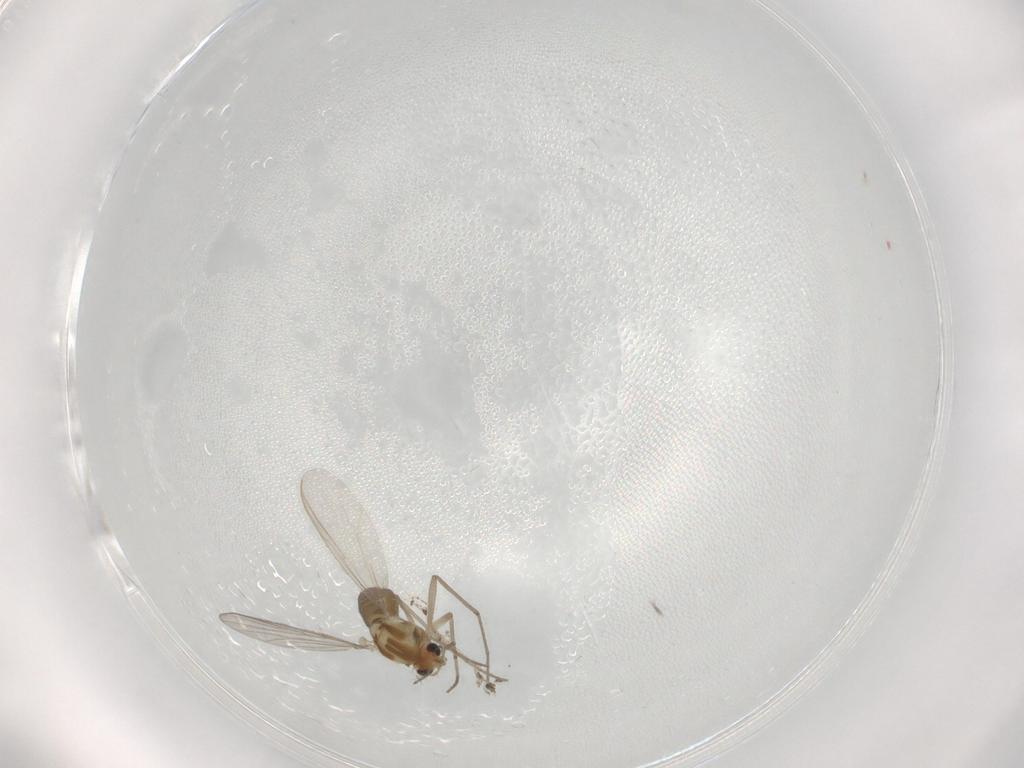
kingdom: Animalia
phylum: Arthropoda
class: Insecta
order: Diptera
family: Chironomidae
